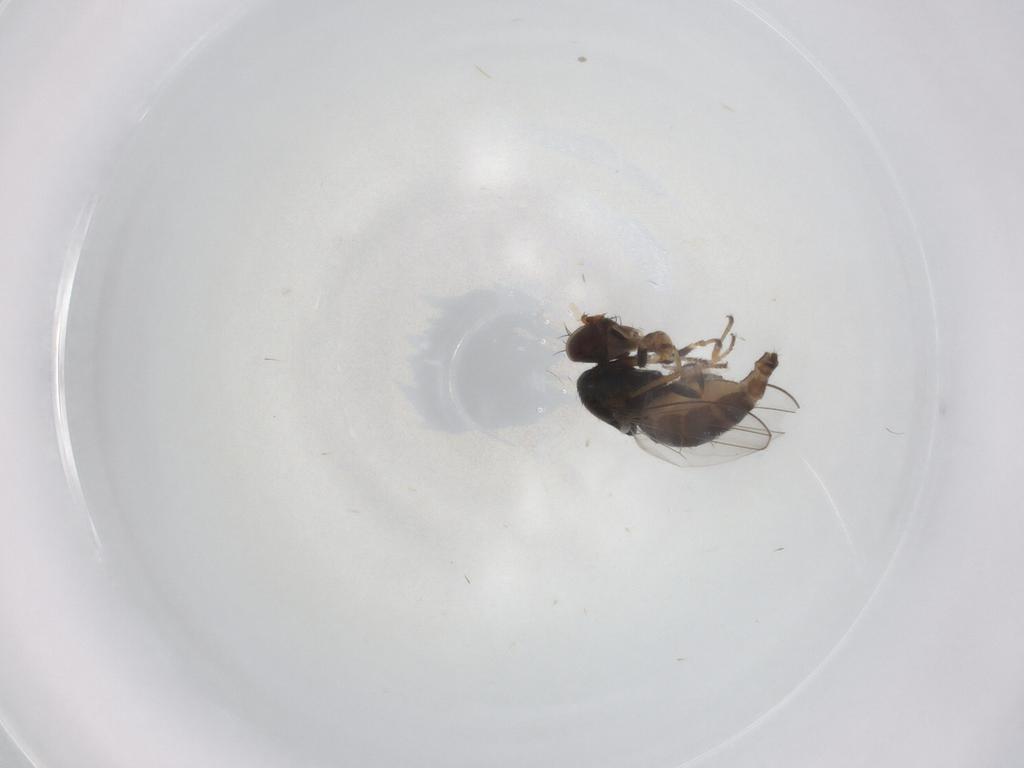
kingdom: Animalia
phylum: Arthropoda
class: Insecta
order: Diptera
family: Ephydridae
